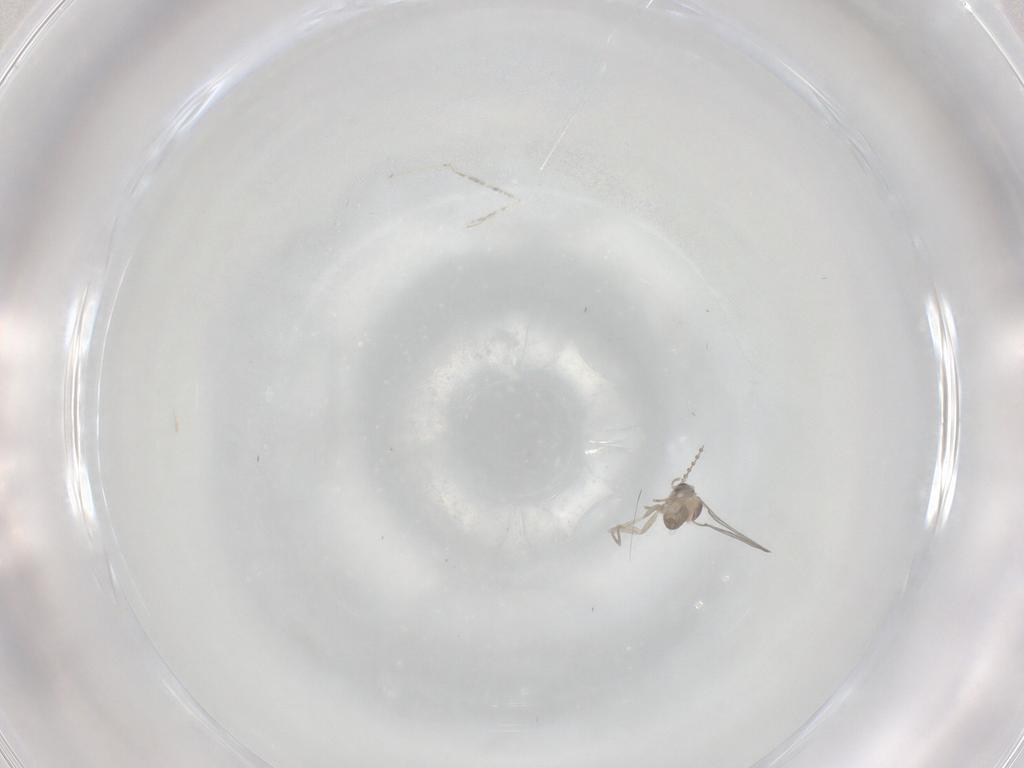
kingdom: Animalia
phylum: Arthropoda
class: Insecta
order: Diptera
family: Cecidomyiidae
